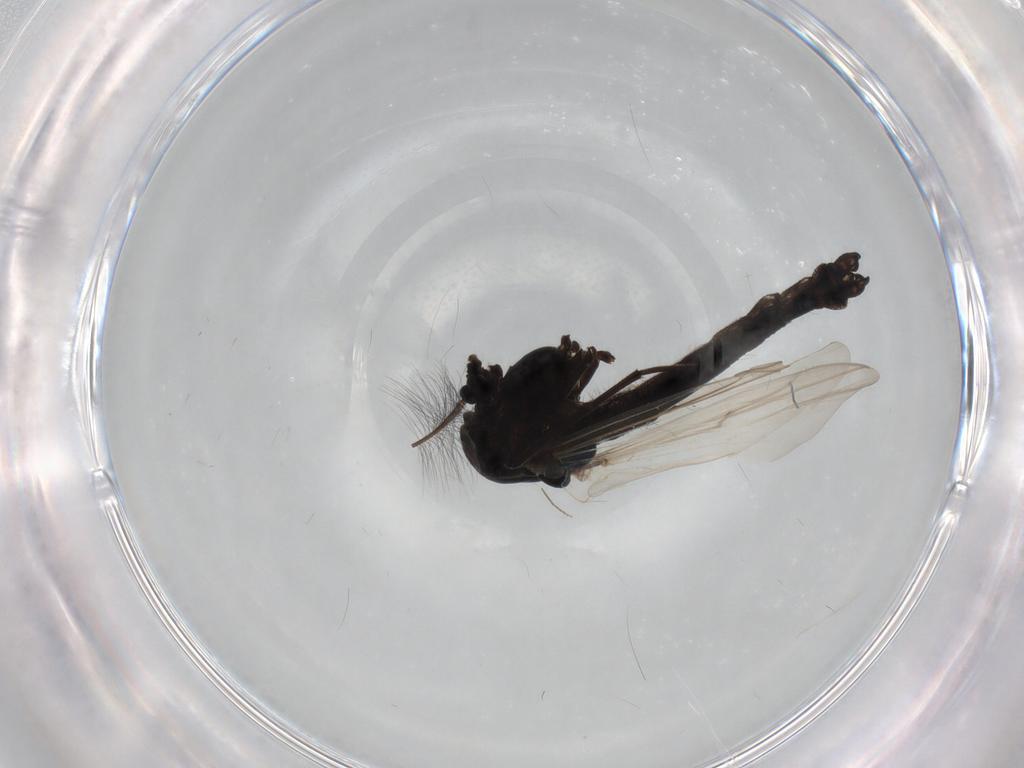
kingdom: Animalia
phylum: Arthropoda
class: Insecta
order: Diptera
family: Chironomidae
